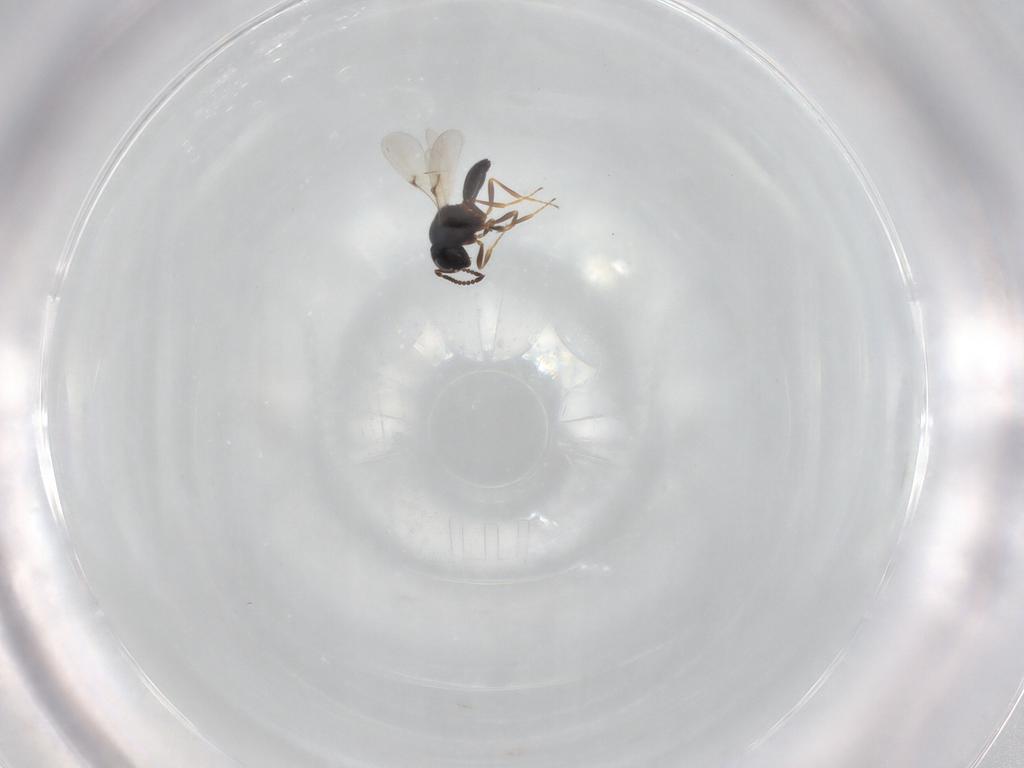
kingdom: Animalia
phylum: Arthropoda
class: Arachnida
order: Araneae
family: Pholcidae
